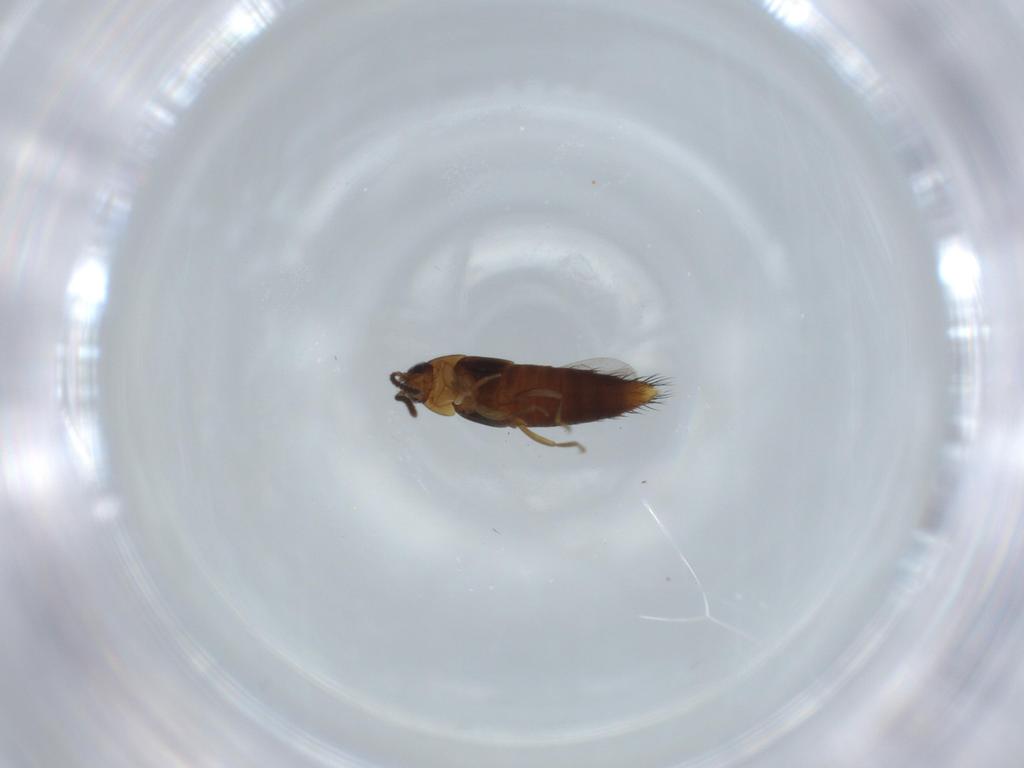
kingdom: Animalia
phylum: Arthropoda
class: Insecta
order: Coleoptera
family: Staphylinidae
